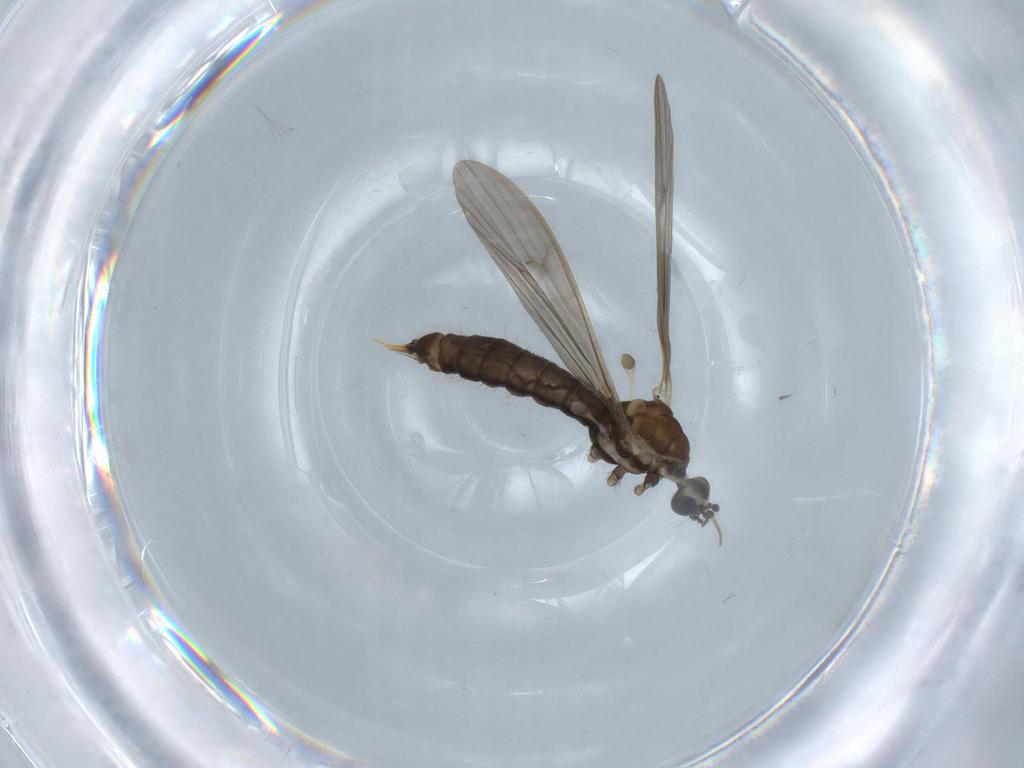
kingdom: Animalia
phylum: Arthropoda
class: Insecta
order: Diptera
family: Limoniidae
